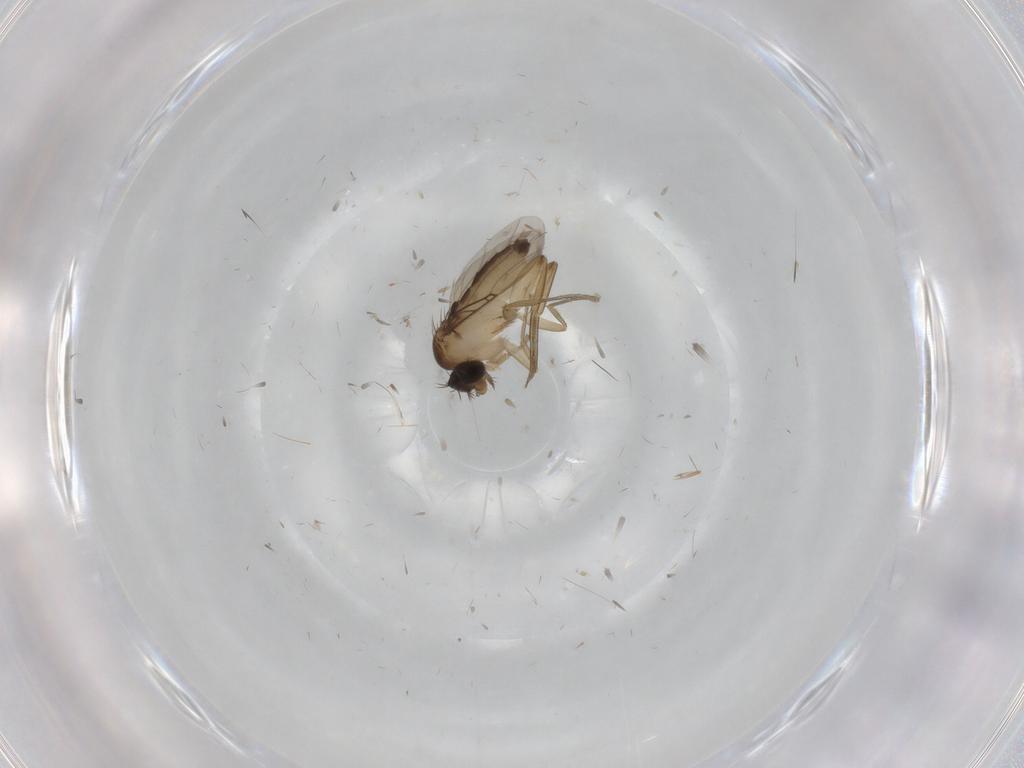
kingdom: Animalia
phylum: Arthropoda
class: Insecta
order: Diptera
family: Phoridae
